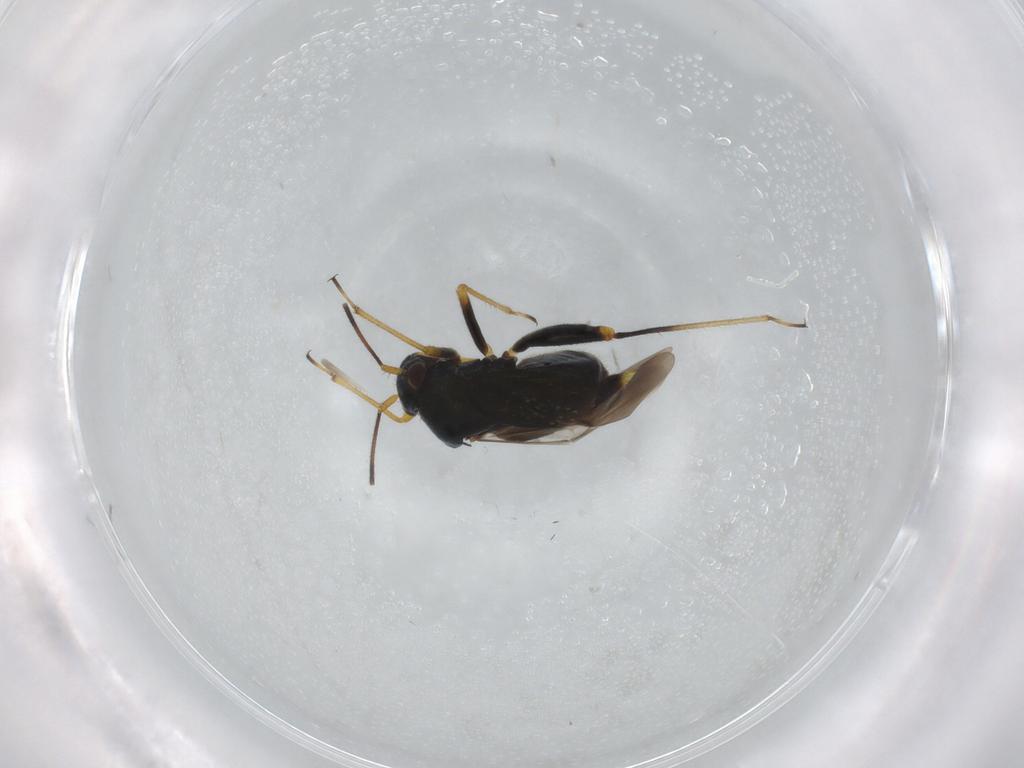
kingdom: Animalia
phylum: Arthropoda
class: Insecta
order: Hemiptera
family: Miridae
